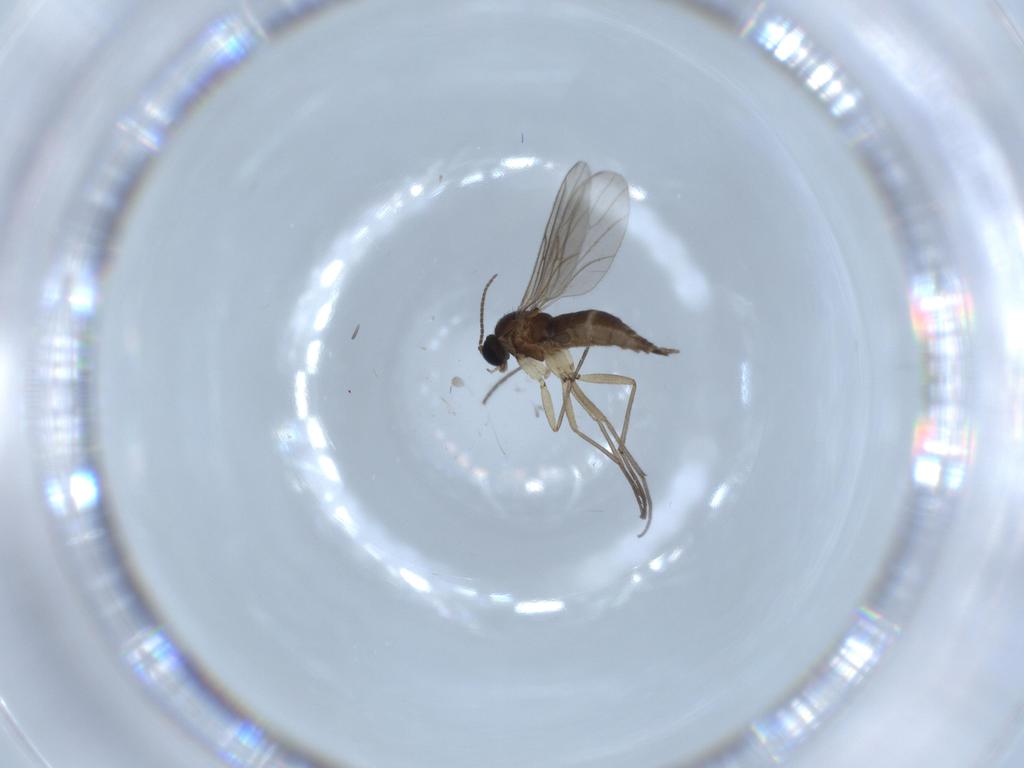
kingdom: Animalia
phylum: Arthropoda
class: Insecta
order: Diptera
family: Sciaridae
